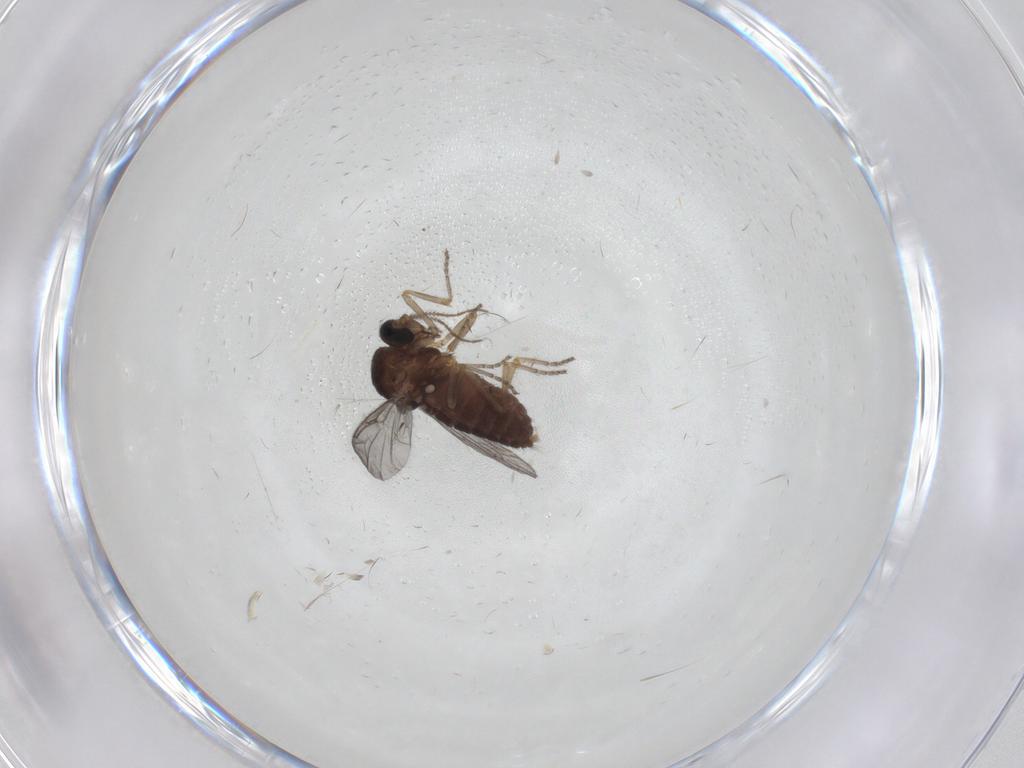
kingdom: Animalia
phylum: Arthropoda
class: Insecta
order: Diptera
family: Ceratopogonidae
